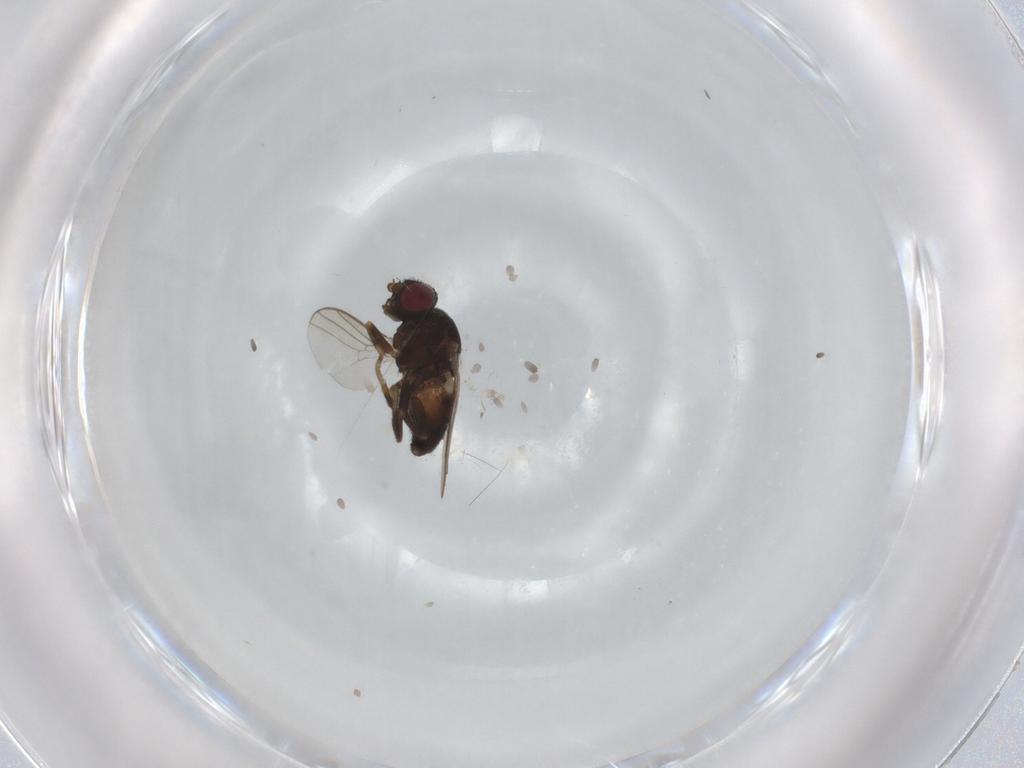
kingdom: Animalia
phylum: Arthropoda
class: Insecta
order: Diptera
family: Chloropidae
